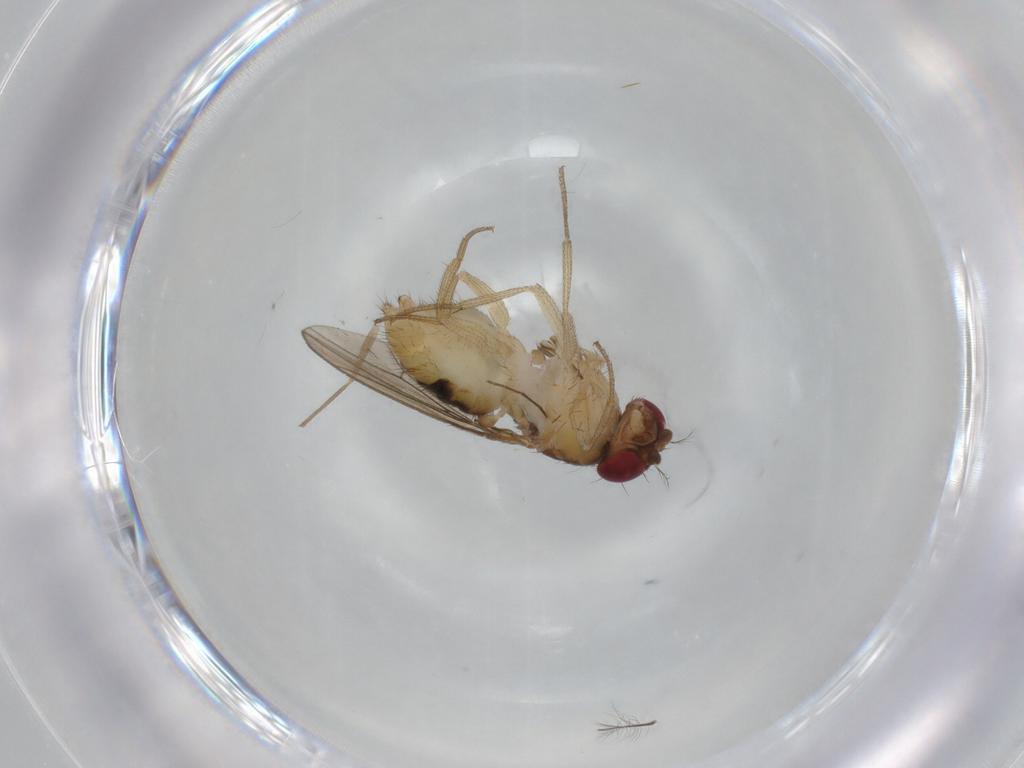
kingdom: Animalia
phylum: Arthropoda
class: Insecta
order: Diptera
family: Drosophilidae
